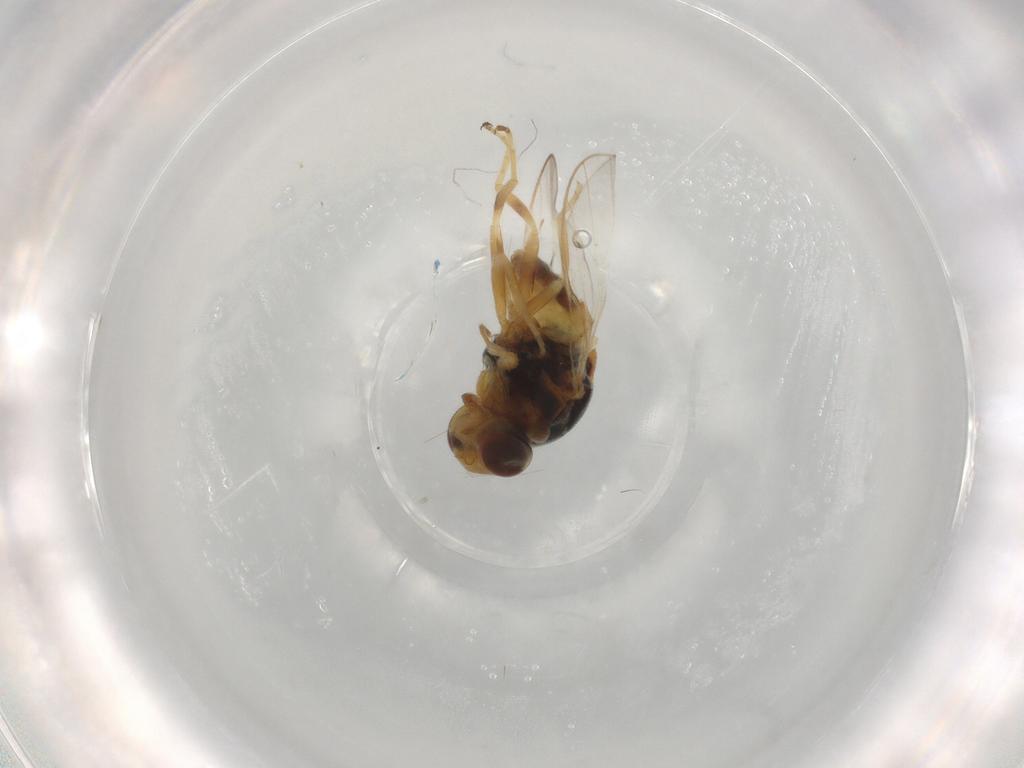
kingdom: Animalia
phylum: Arthropoda
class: Insecta
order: Diptera
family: Phoridae
